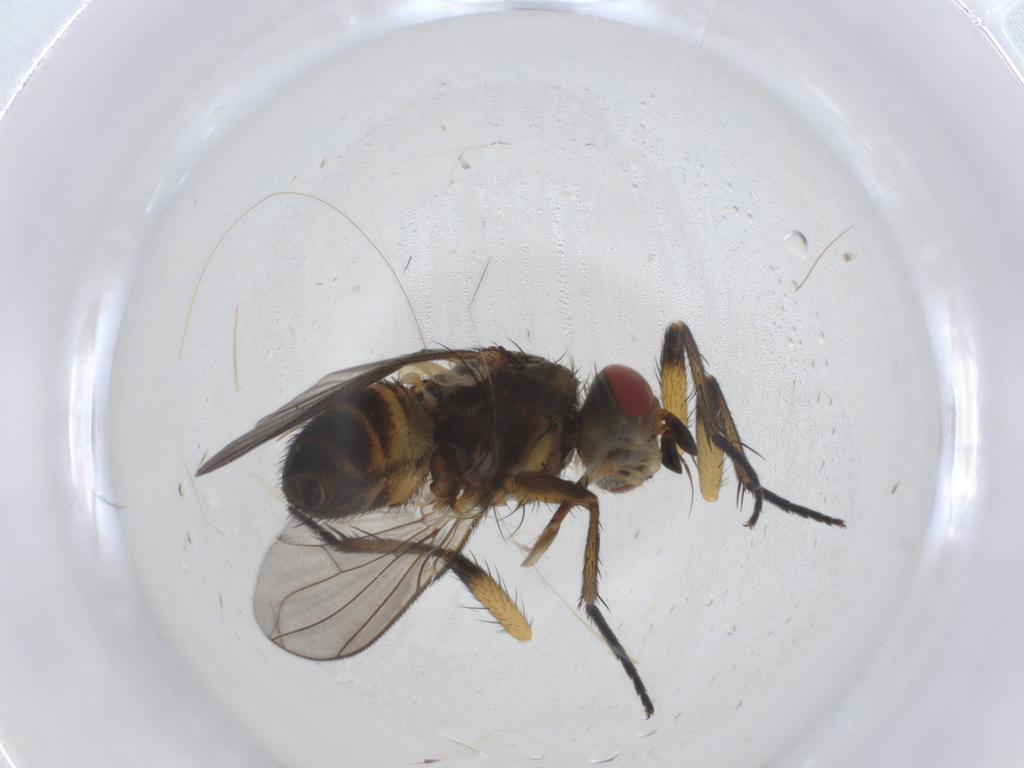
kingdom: Animalia
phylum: Arthropoda
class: Insecta
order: Diptera
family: Tachinidae
